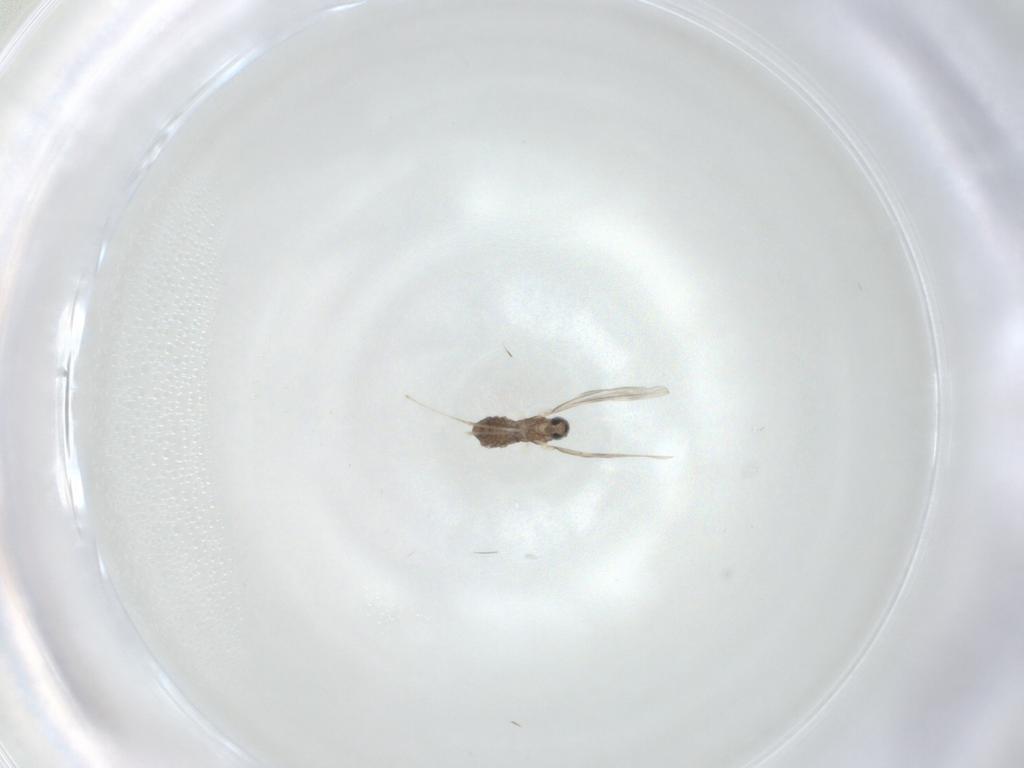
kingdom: Animalia
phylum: Arthropoda
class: Insecta
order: Diptera
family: Cecidomyiidae
